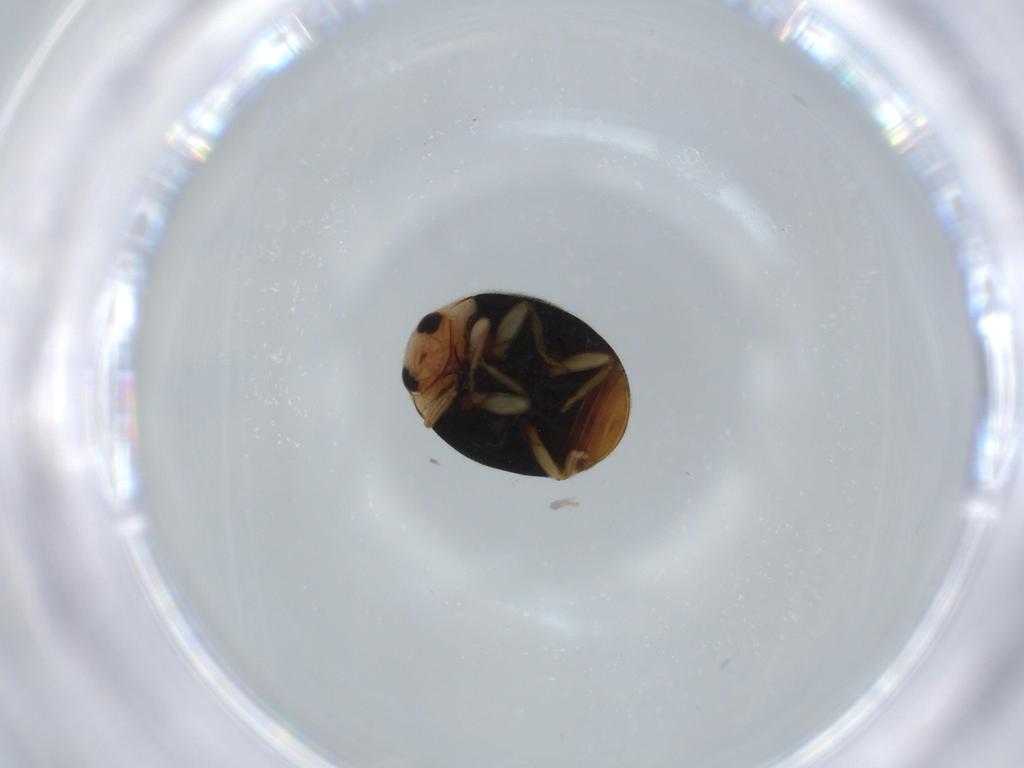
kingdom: Animalia
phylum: Arthropoda
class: Insecta
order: Coleoptera
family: Coccinellidae
